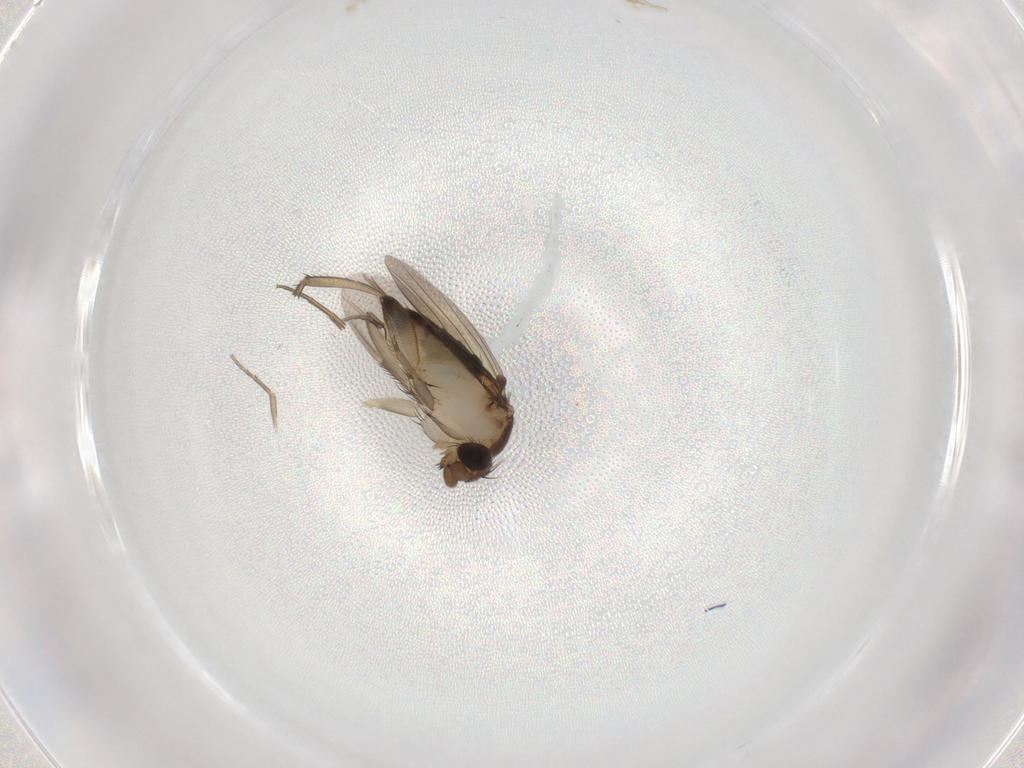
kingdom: Animalia
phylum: Arthropoda
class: Insecta
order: Diptera
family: Phoridae
